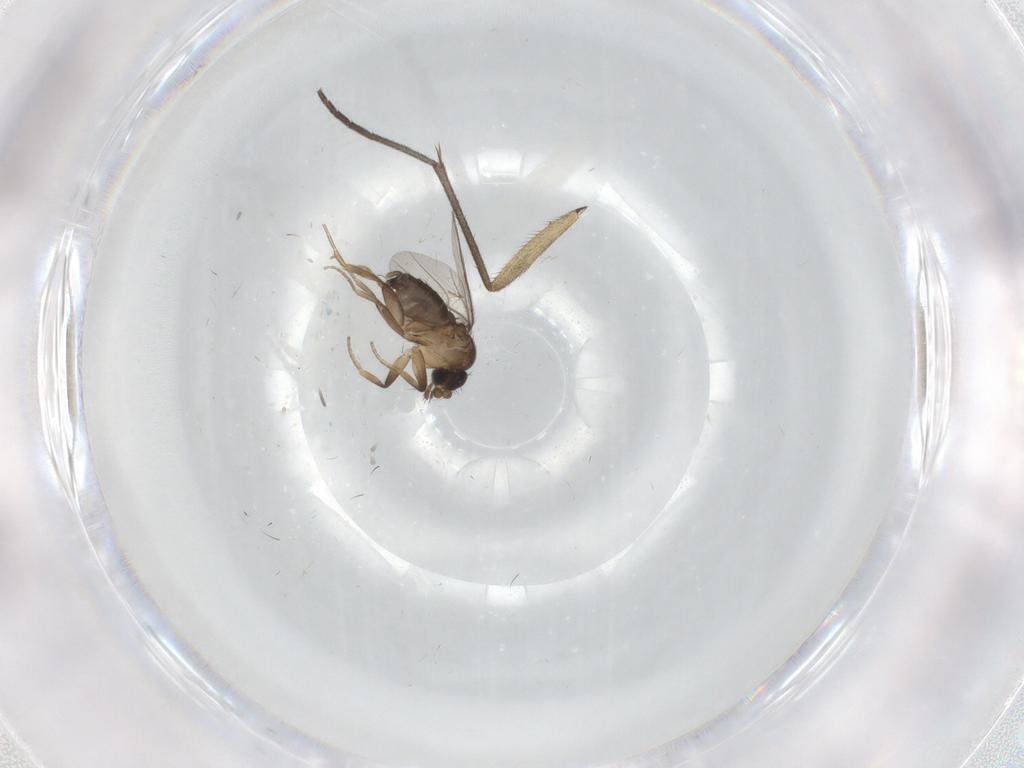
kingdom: Animalia
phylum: Arthropoda
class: Insecta
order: Diptera
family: Sciaridae
